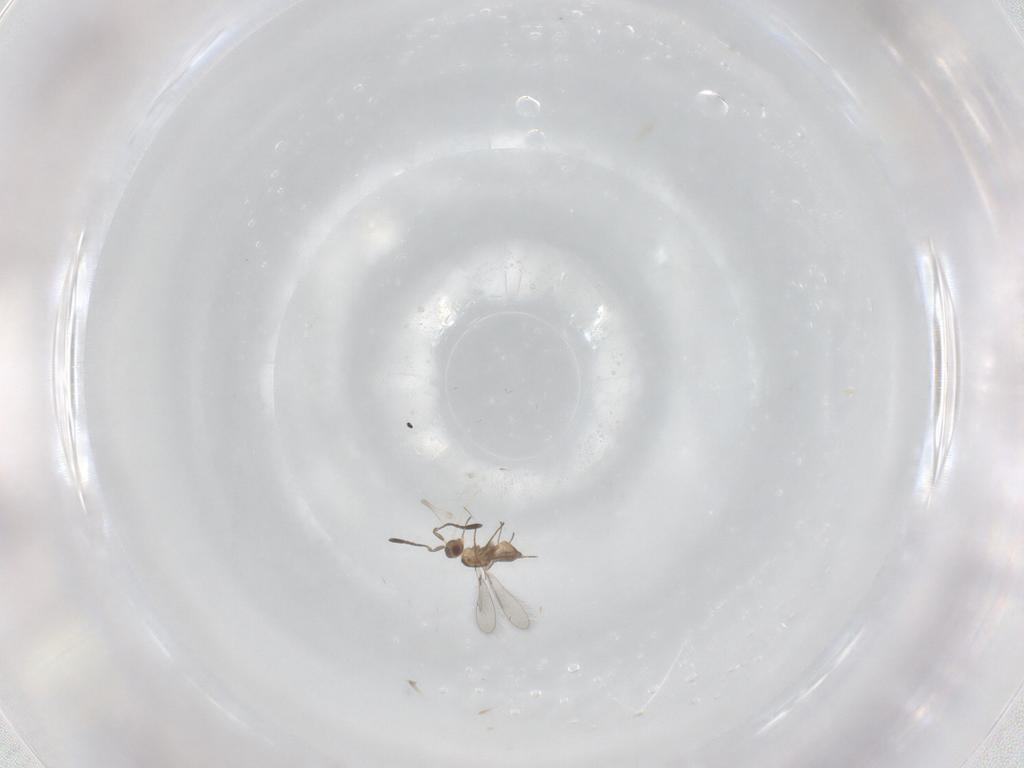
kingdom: Animalia
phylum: Arthropoda
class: Insecta
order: Hymenoptera
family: Mymaridae
